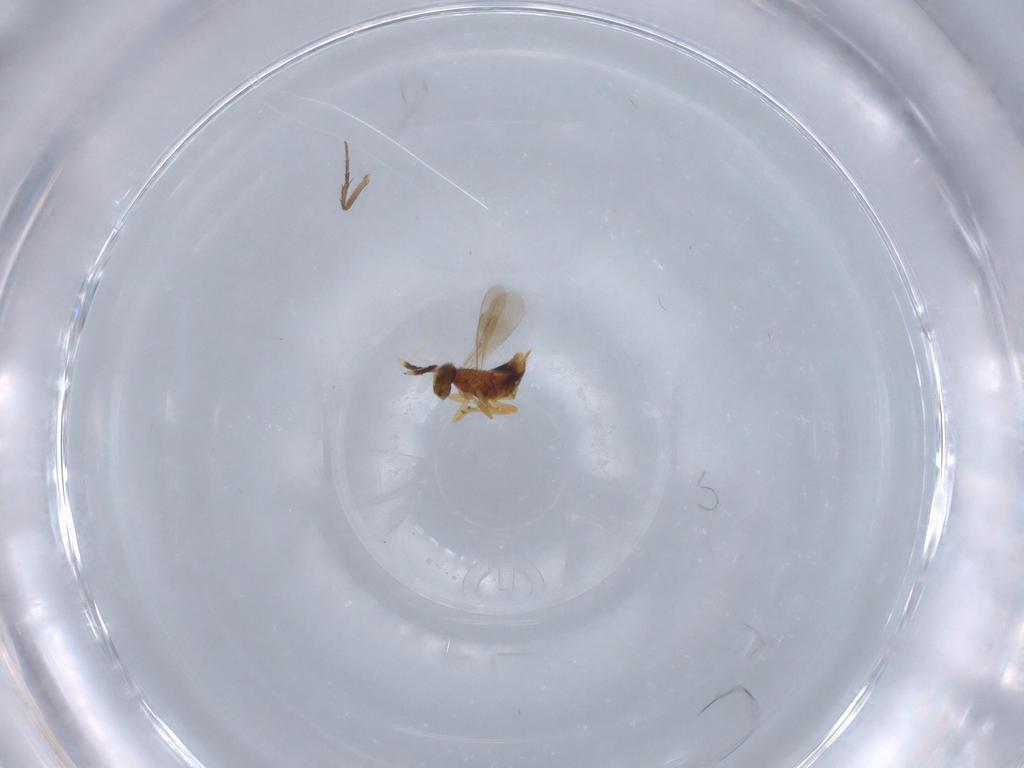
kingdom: Animalia
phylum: Arthropoda
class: Insecta
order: Hymenoptera
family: Aphelinidae
